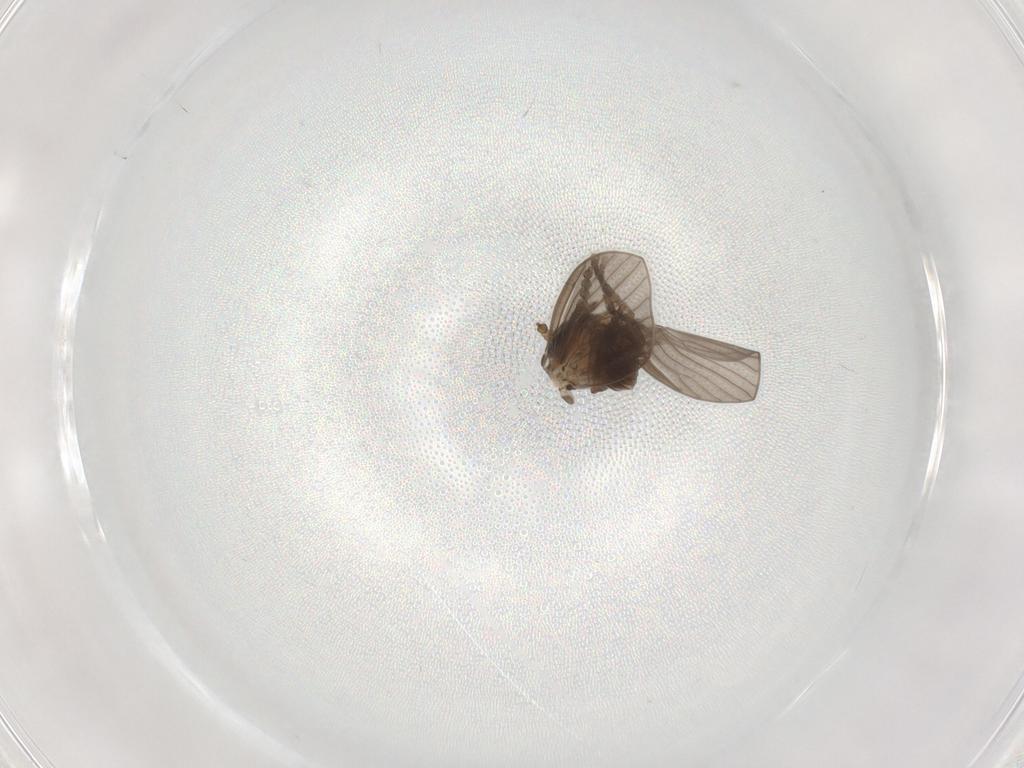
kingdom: Animalia
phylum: Arthropoda
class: Insecta
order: Diptera
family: Psychodidae
